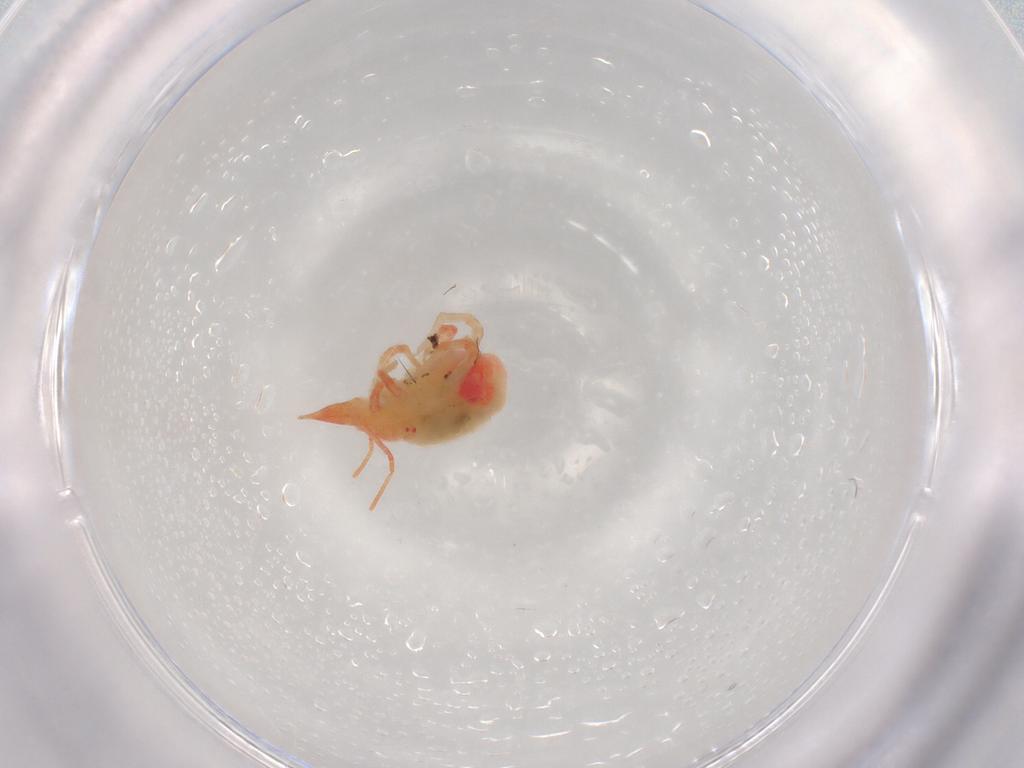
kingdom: Animalia
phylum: Arthropoda
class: Arachnida
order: Trombidiformes
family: Bdellidae
